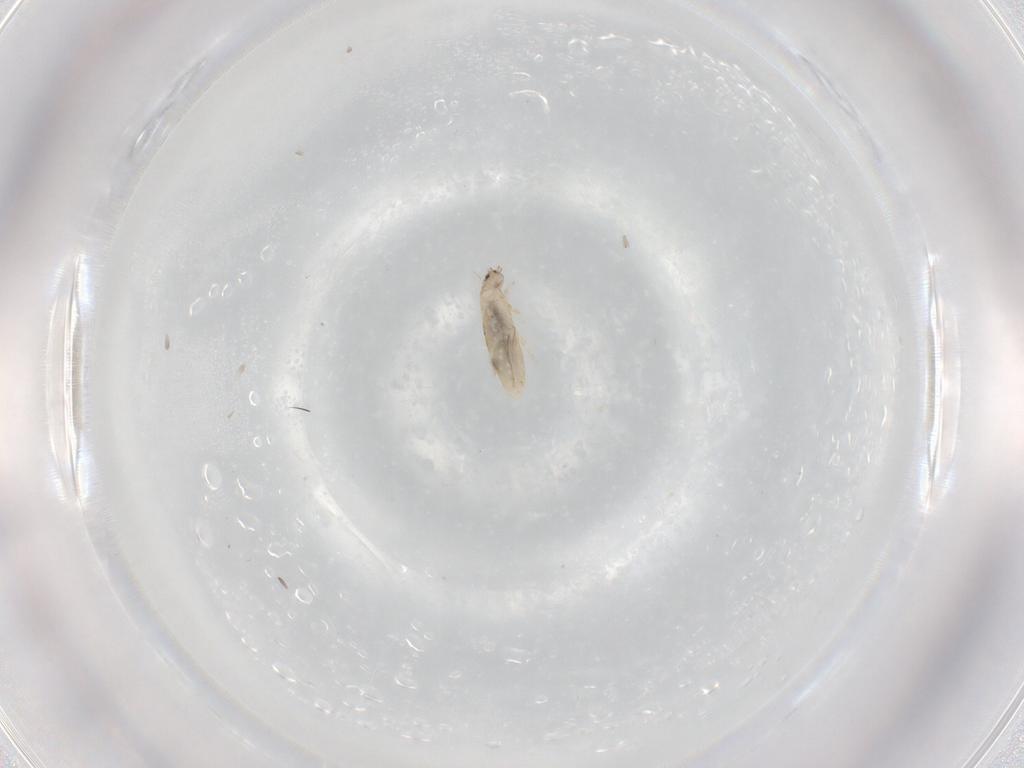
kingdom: Animalia
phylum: Arthropoda
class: Collembola
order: Entomobryomorpha
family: Entomobryidae
